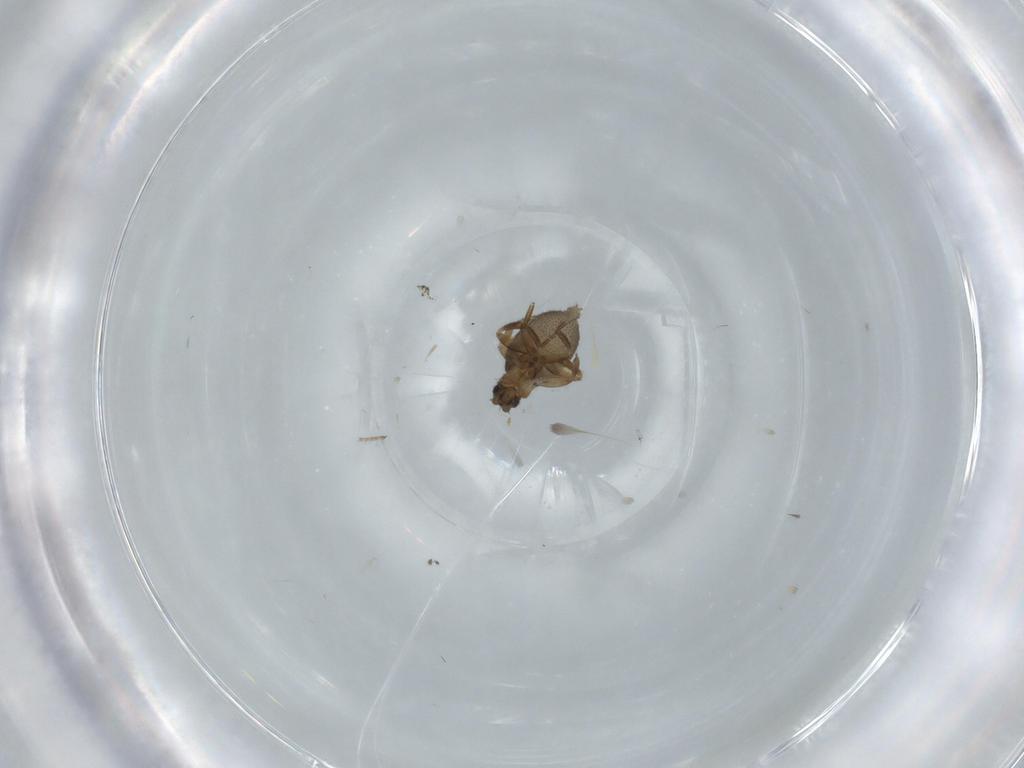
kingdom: Animalia
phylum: Arthropoda
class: Insecta
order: Diptera
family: Phoridae
